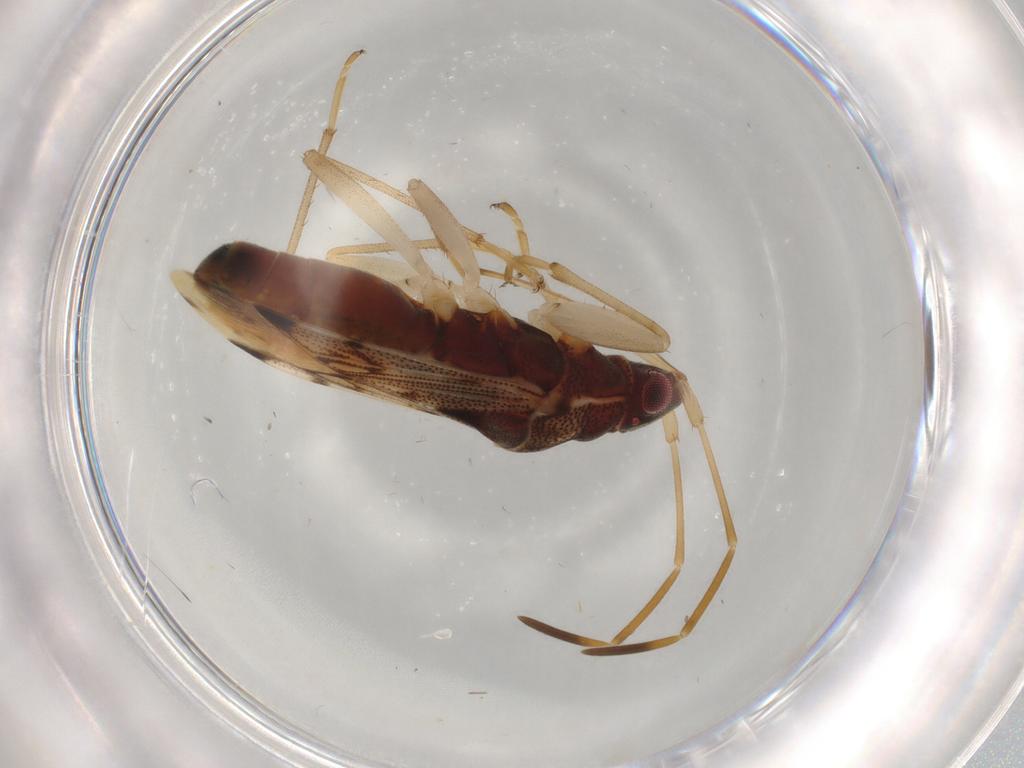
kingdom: Animalia
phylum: Arthropoda
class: Insecta
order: Hemiptera
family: Rhyparochromidae
